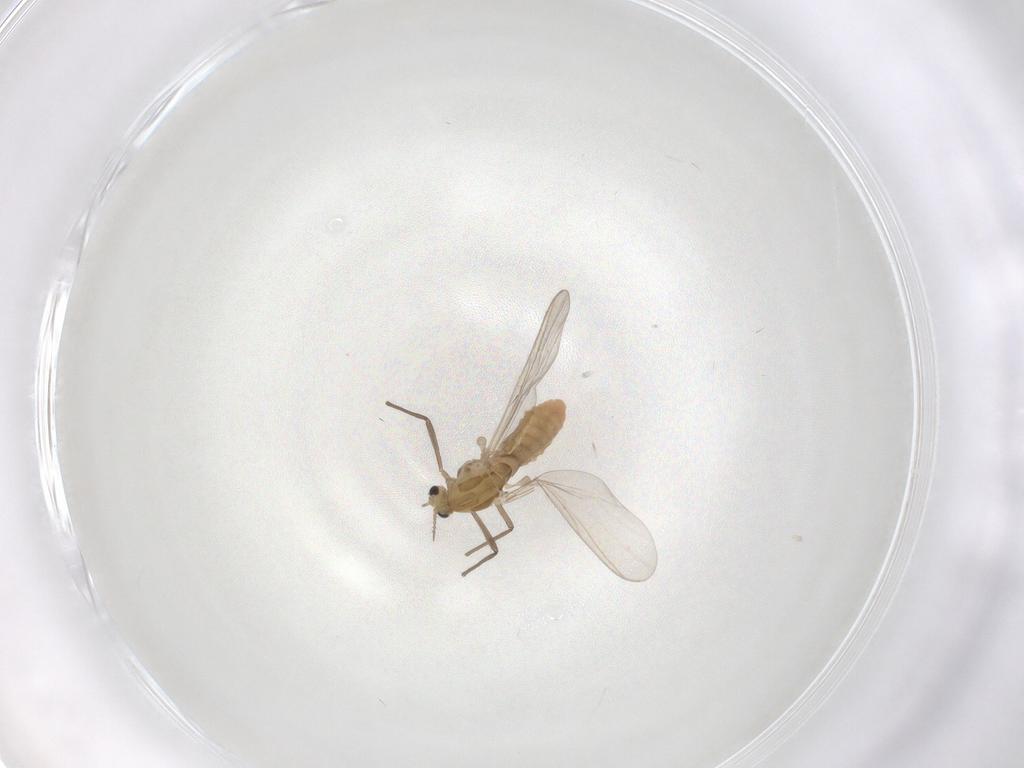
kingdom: Animalia
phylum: Arthropoda
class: Insecta
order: Diptera
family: Chironomidae
